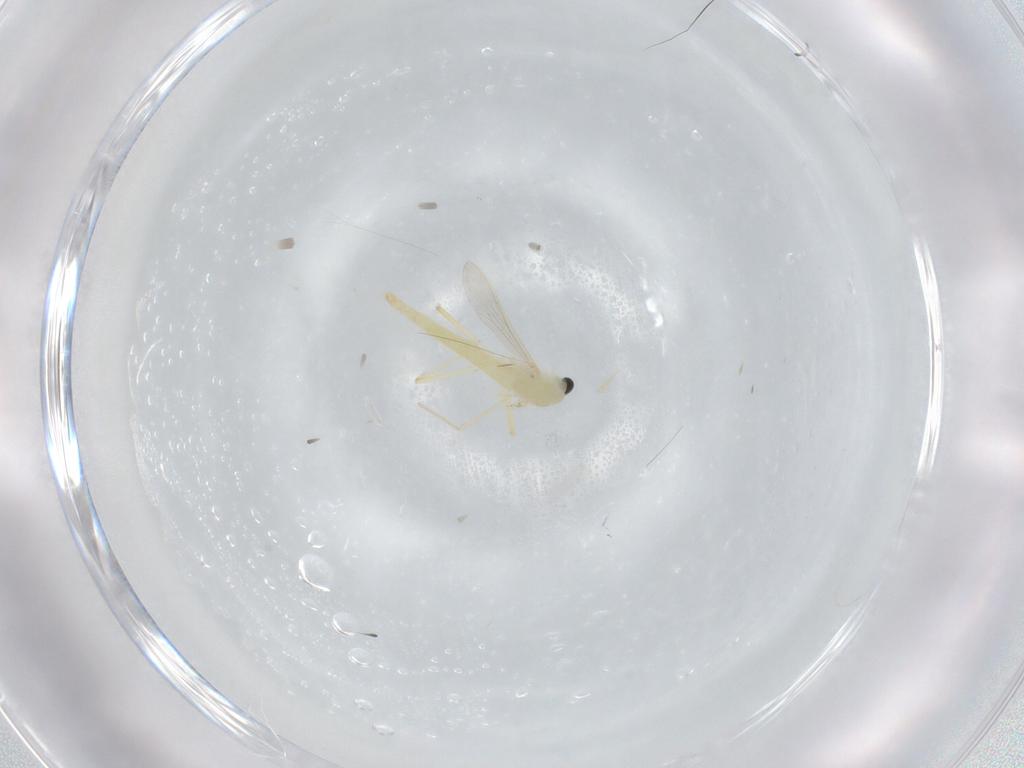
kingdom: Animalia
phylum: Arthropoda
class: Insecta
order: Diptera
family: Chironomidae
